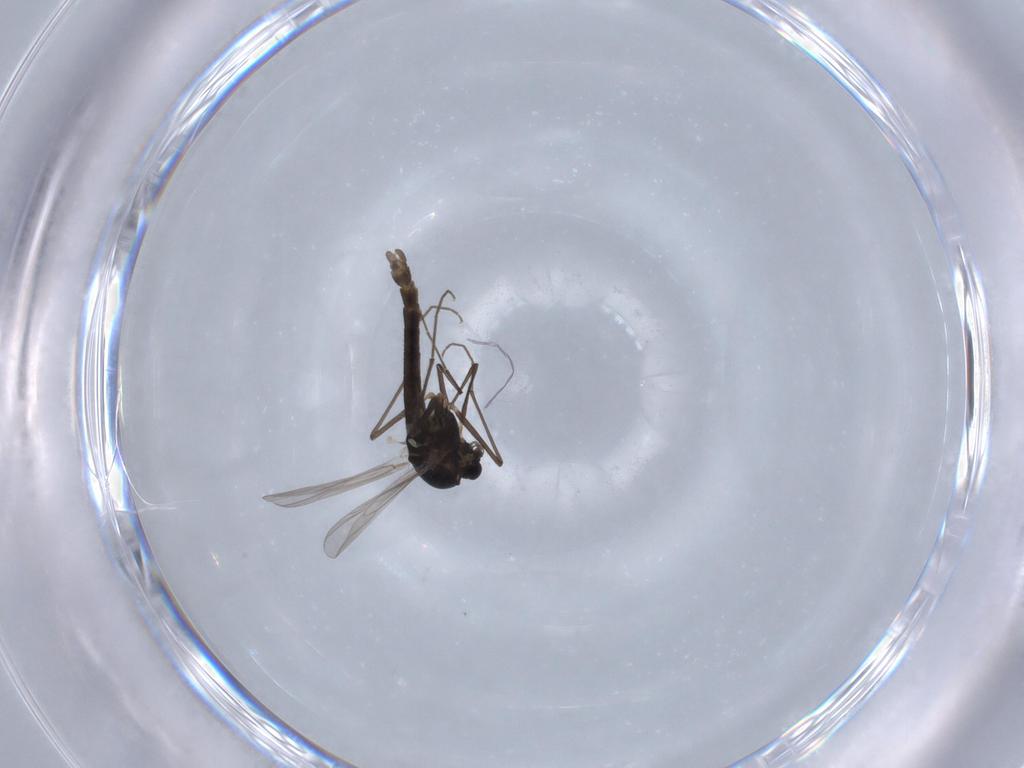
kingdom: Animalia
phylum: Arthropoda
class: Insecta
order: Diptera
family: Chironomidae
